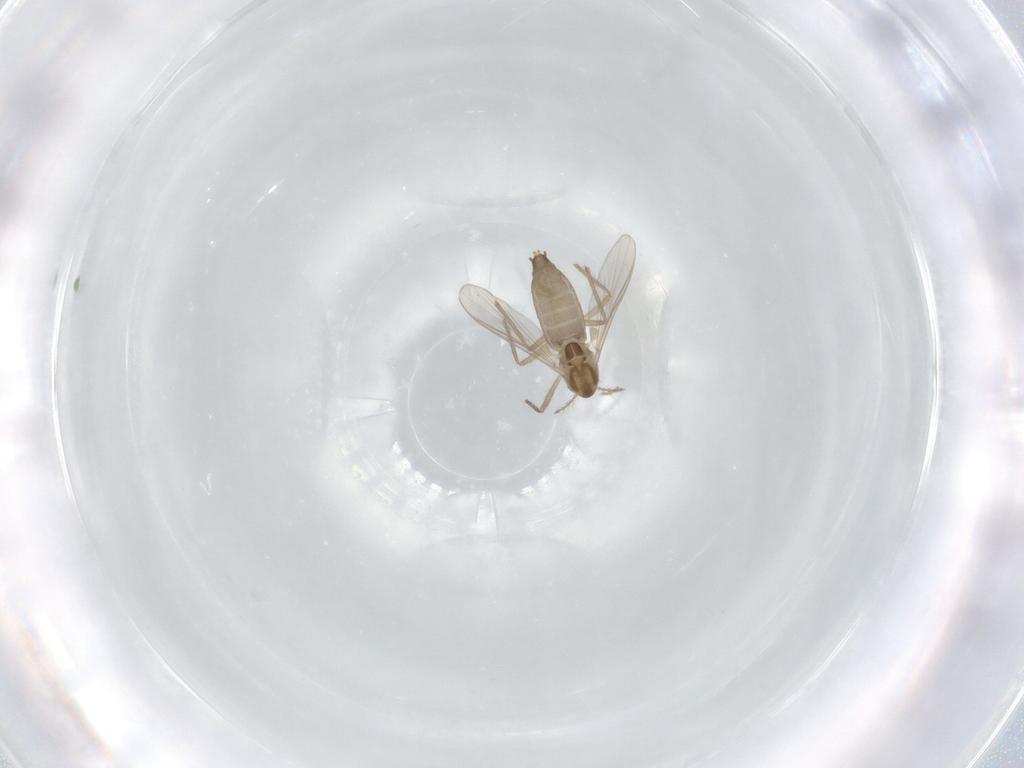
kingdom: Animalia
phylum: Arthropoda
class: Insecta
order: Diptera
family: Chironomidae
